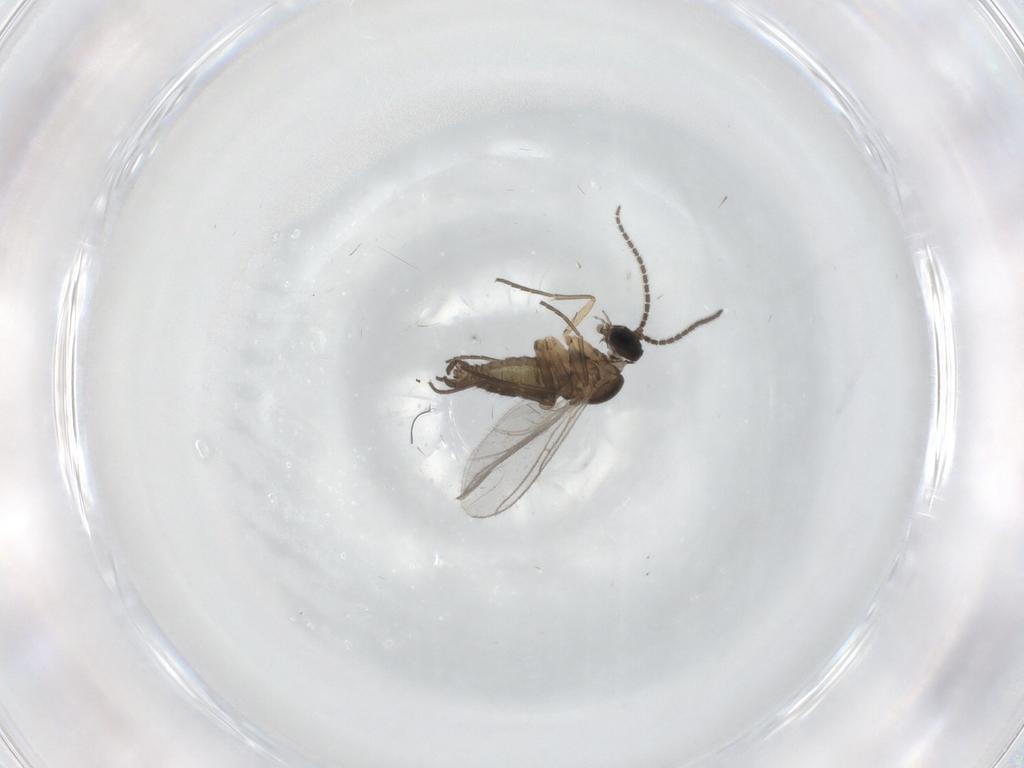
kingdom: Animalia
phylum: Arthropoda
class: Insecta
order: Diptera
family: Sciaridae
